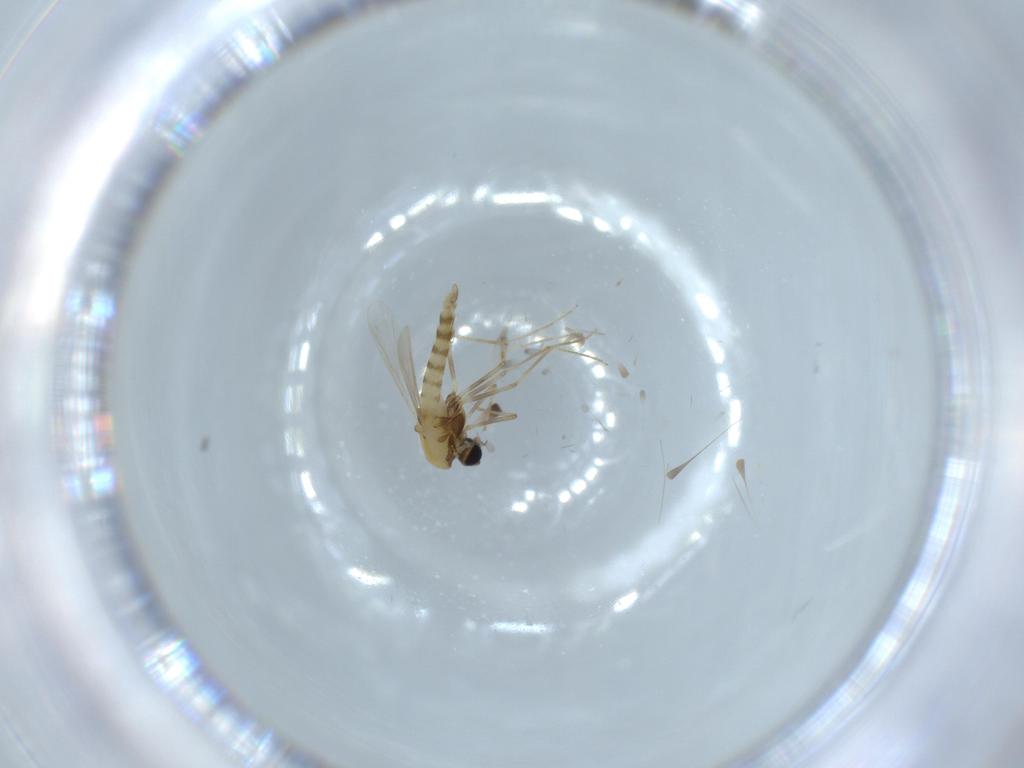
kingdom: Animalia
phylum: Arthropoda
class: Insecta
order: Diptera
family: Chironomidae
